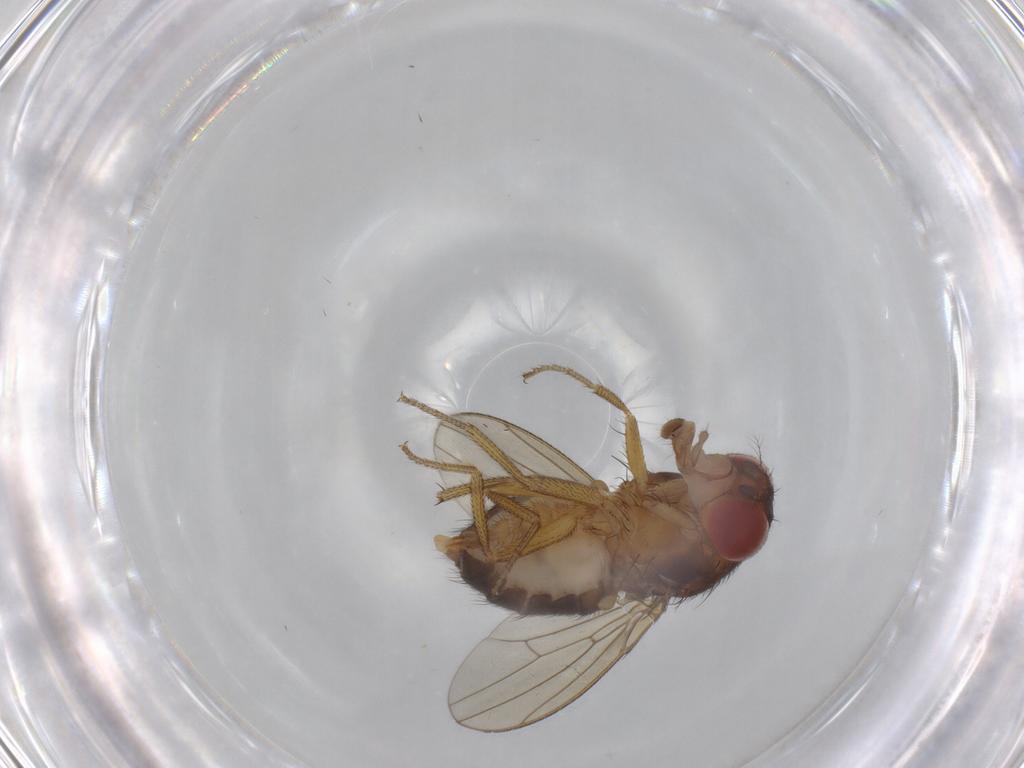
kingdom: Animalia
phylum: Arthropoda
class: Insecta
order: Diptera
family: Drosophilidae
